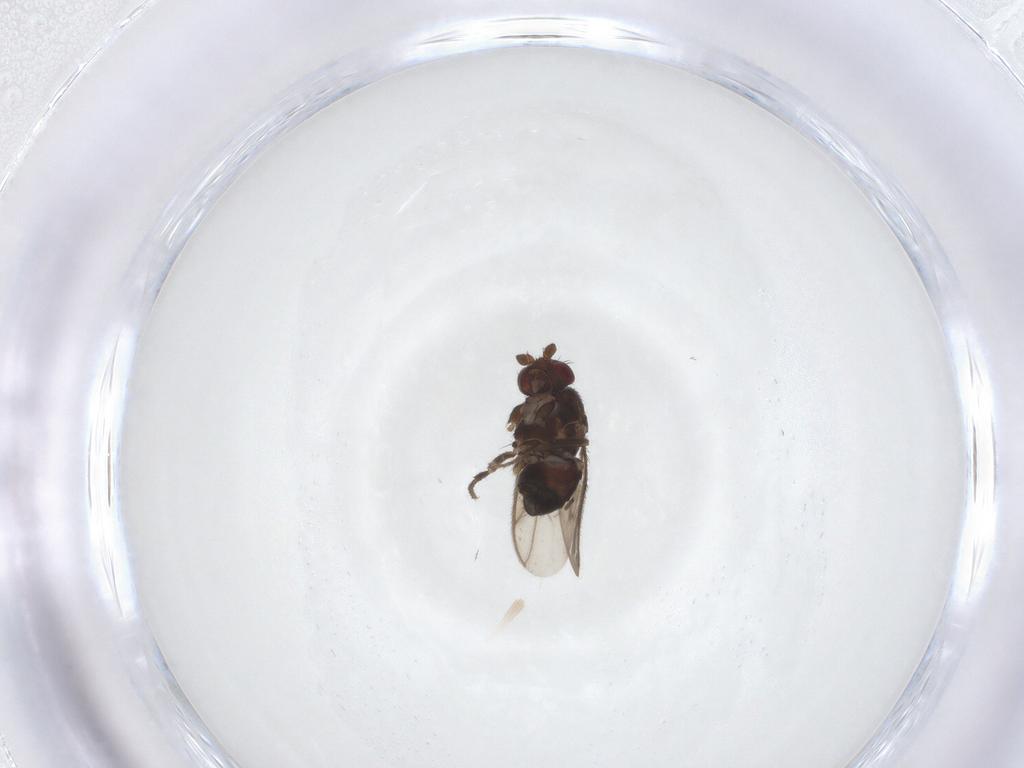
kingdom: Animalia
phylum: Arthropoda
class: Insecta
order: Diptera
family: Sphaeroceridae
